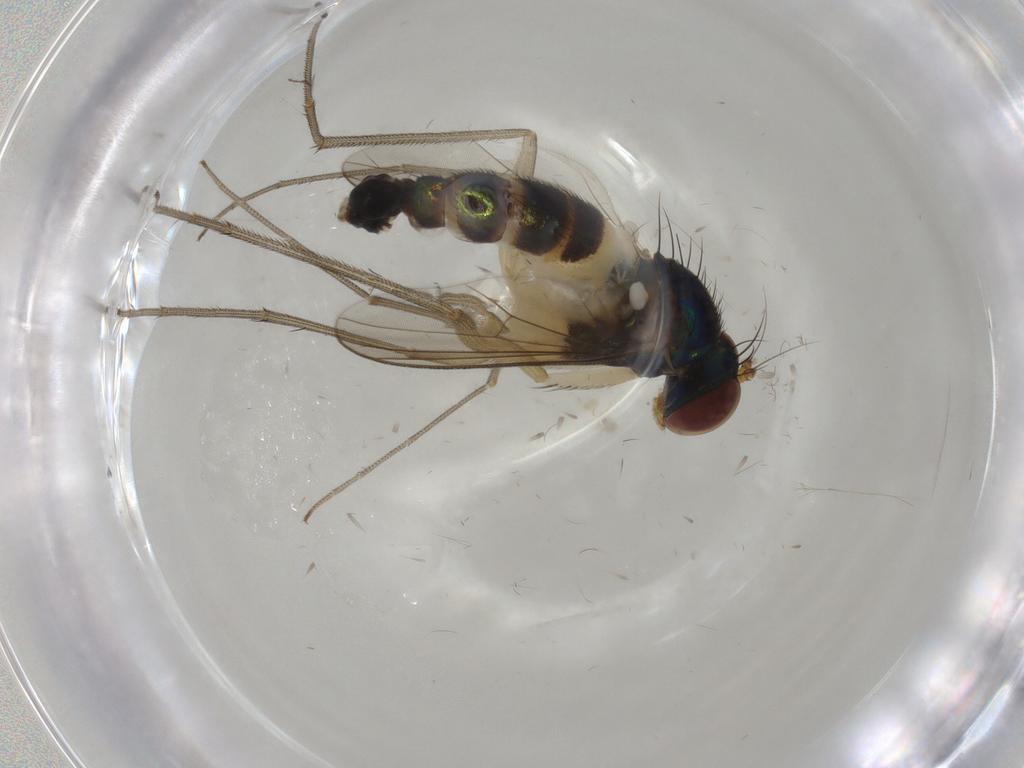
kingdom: Animalia
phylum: Arthropoda
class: Insecta
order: Diptera
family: Dolichopodidae
